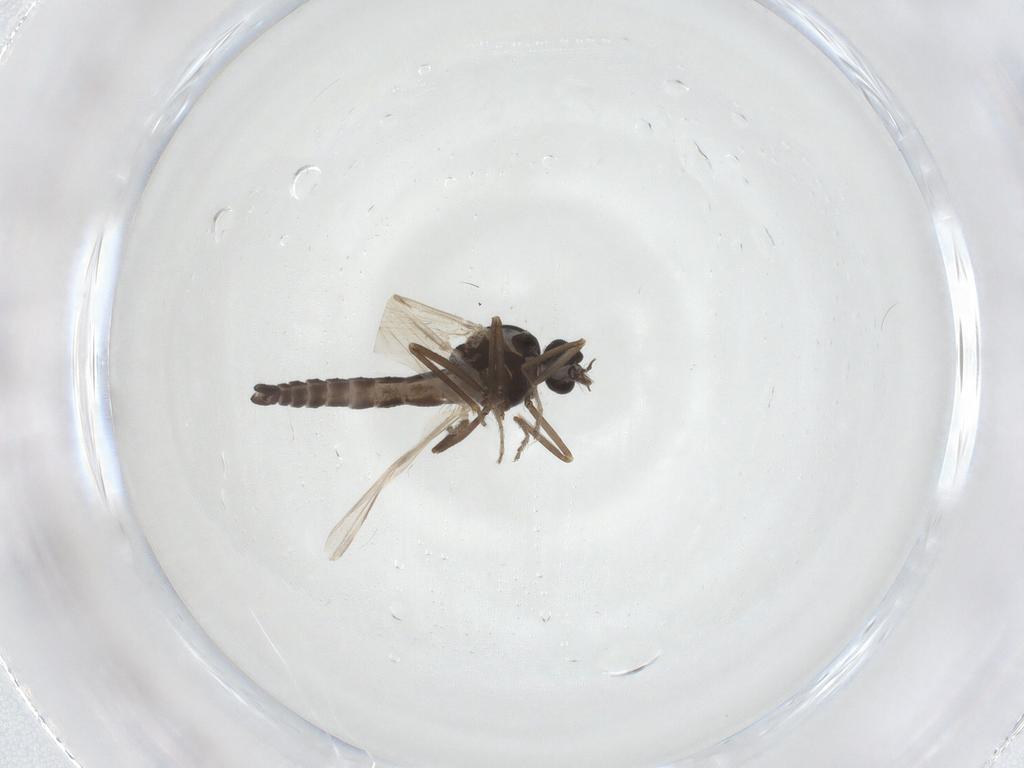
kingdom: Animalia
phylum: Arthropoda
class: Insecta
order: Diptera
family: Ceratopogonidae
